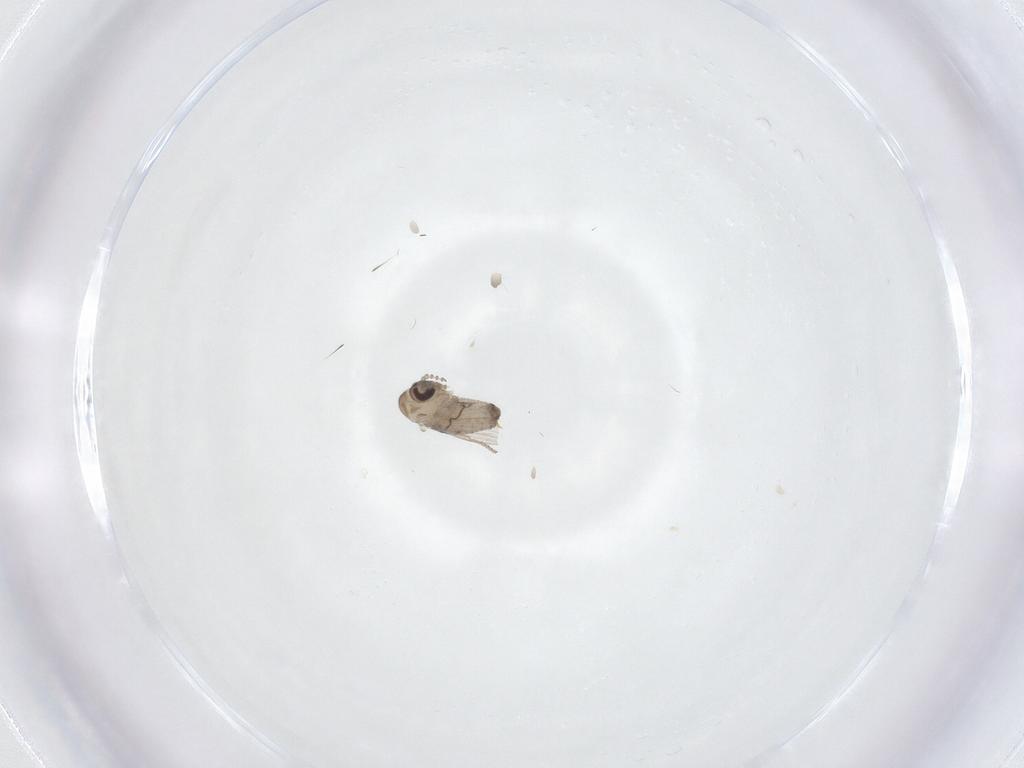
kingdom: Animalia
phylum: Arthropoda
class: Insecta
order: Diptera
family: Psychodidae
